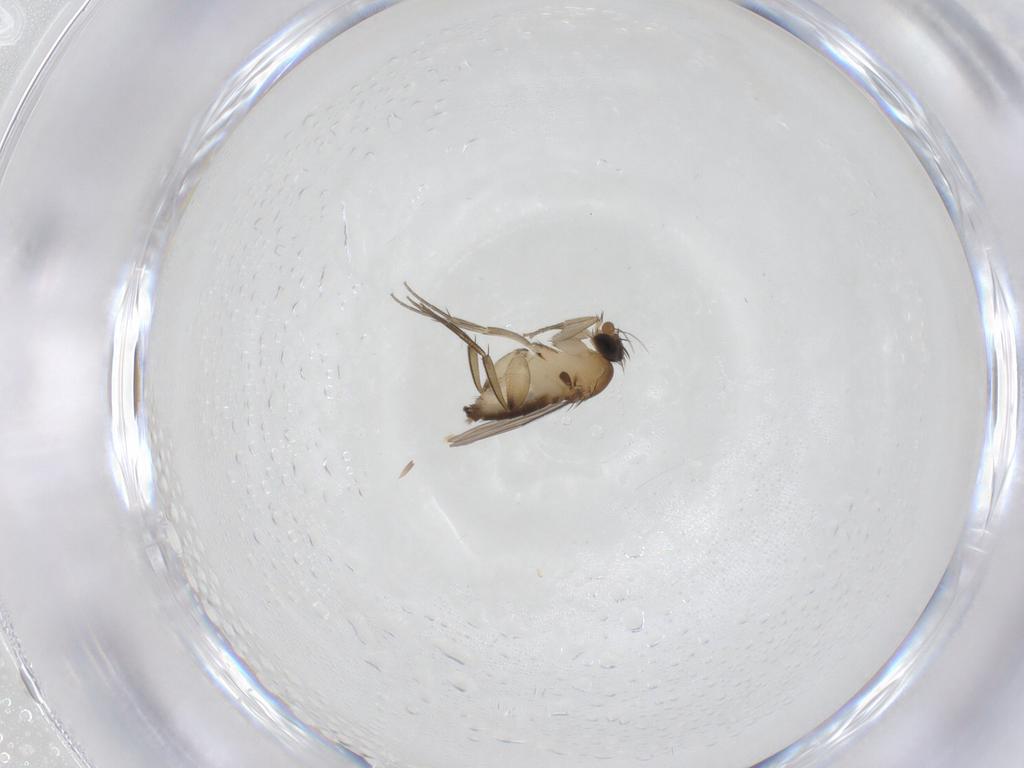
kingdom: Animalia
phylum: Arthropoda
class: Insecta
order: Diptera
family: Phoridae
